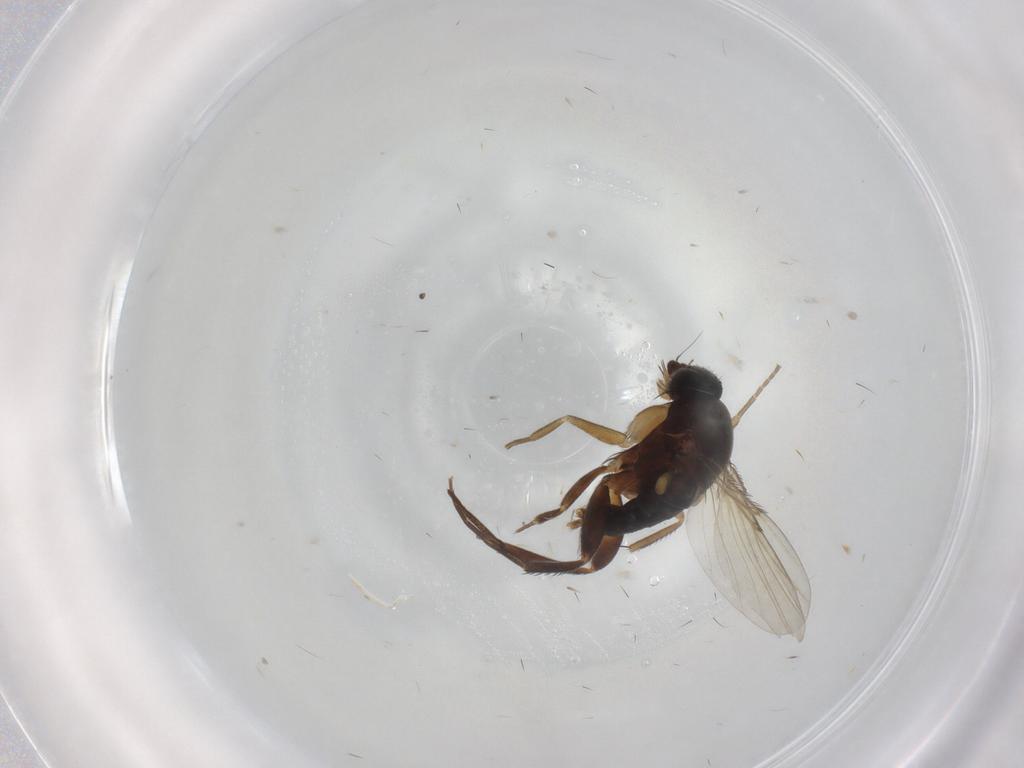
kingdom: Animalia
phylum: Arthropoda
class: Insecta
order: Diptera
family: Phoridae
